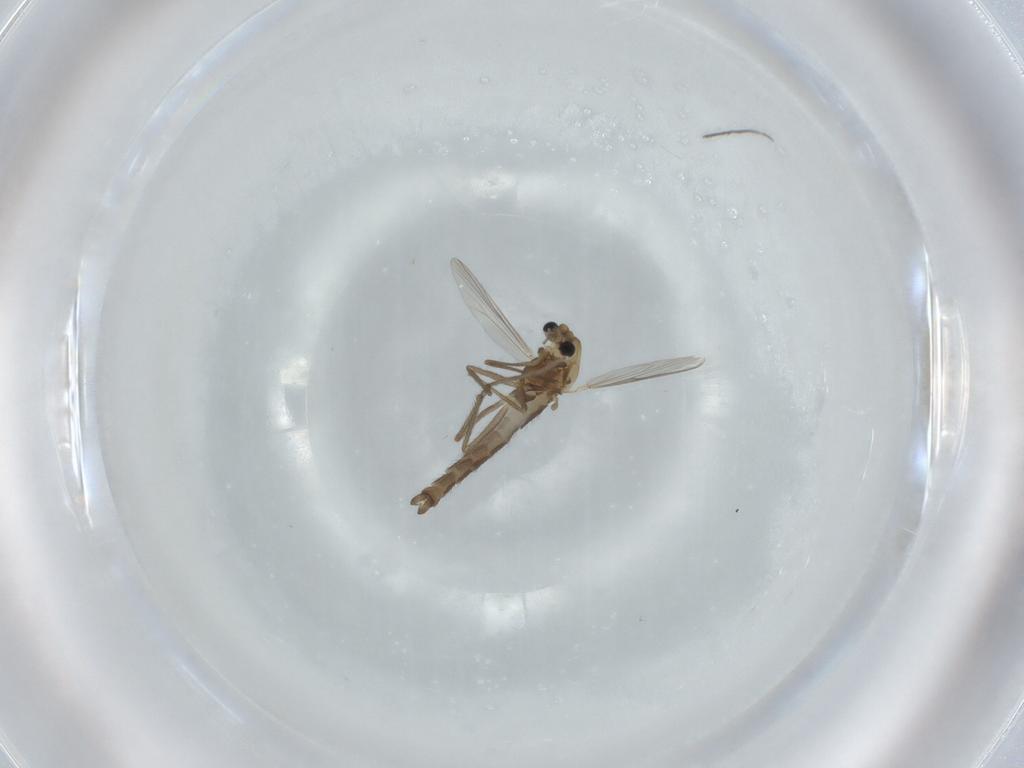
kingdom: Animalia
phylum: Arthropoda
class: Insecta
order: Diptera
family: Chironomidae
